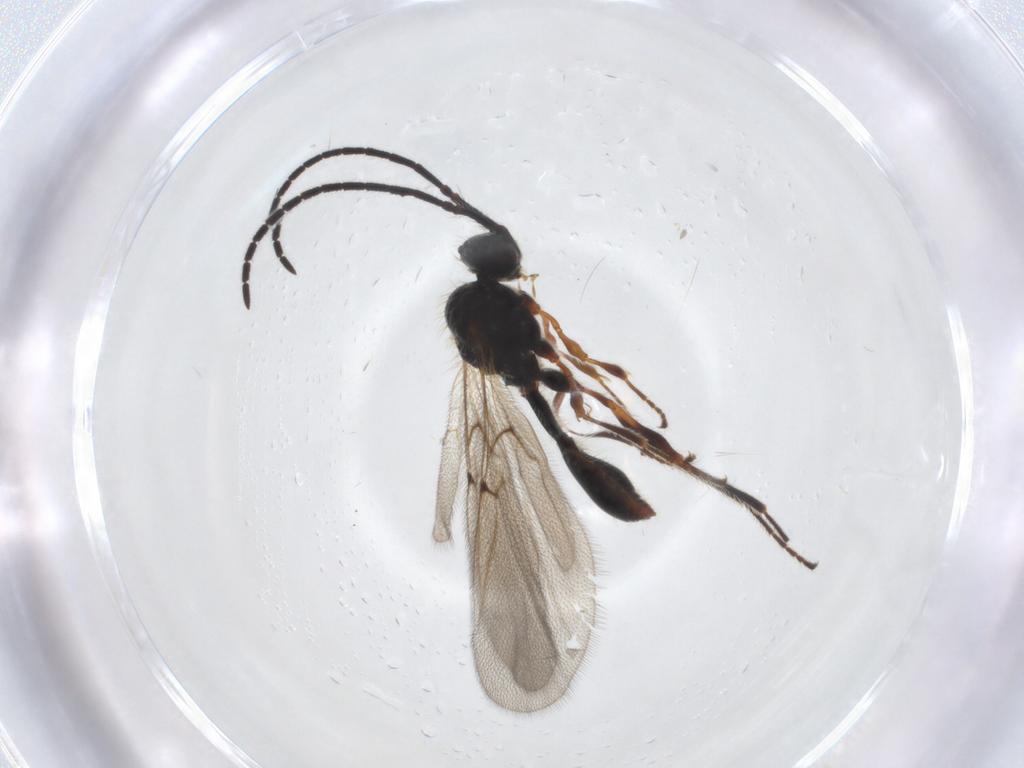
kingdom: Animalia
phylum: Arthropoda
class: Insecta
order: Hymenoptera
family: Diapriidae
